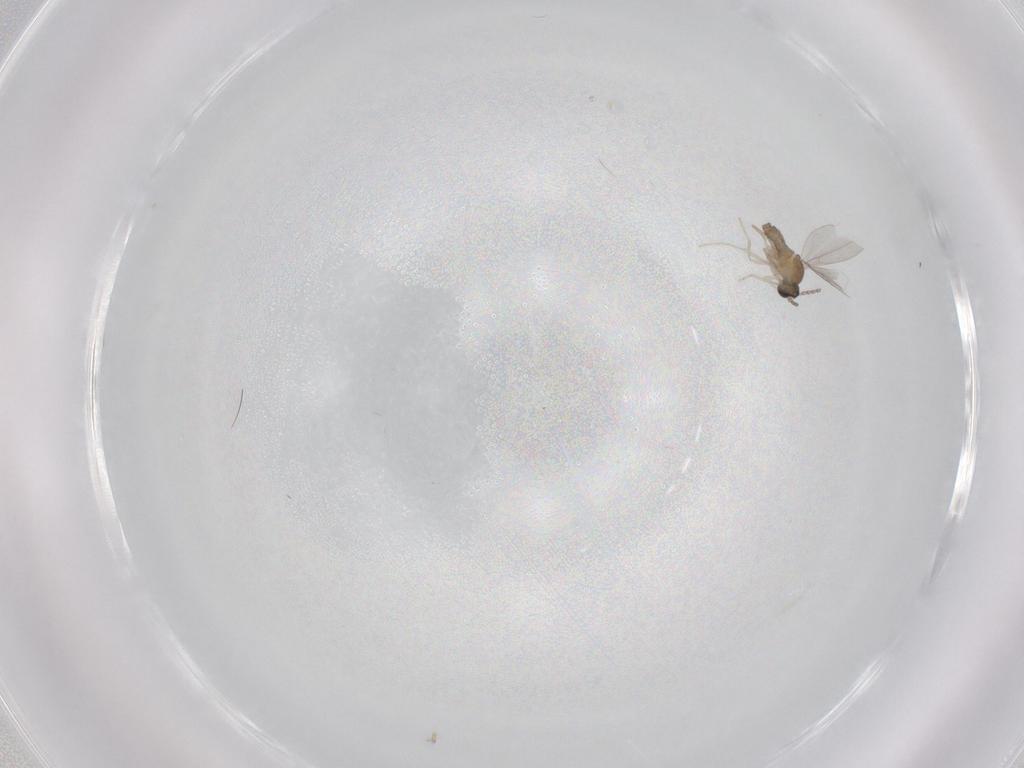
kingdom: Animalia
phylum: Arthropoda
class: Insecta
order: Diptera
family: Cecidomyiidae
